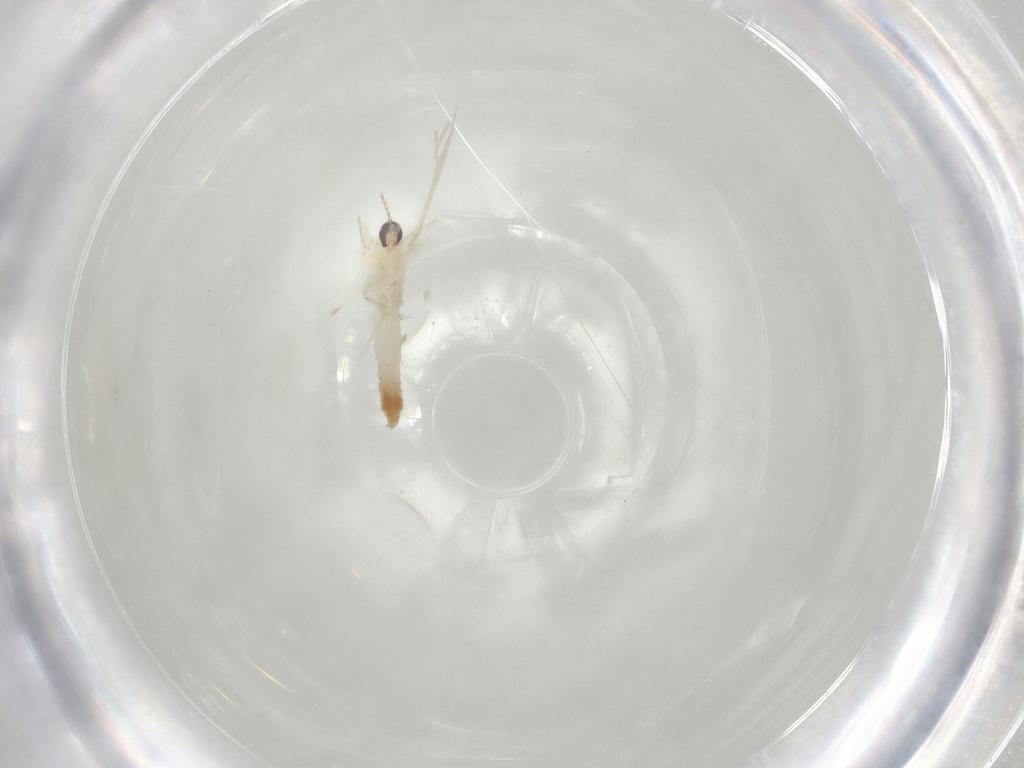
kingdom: Animalia
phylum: Arthropoda
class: Insecta
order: Diptera
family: Cecidomyiidae
